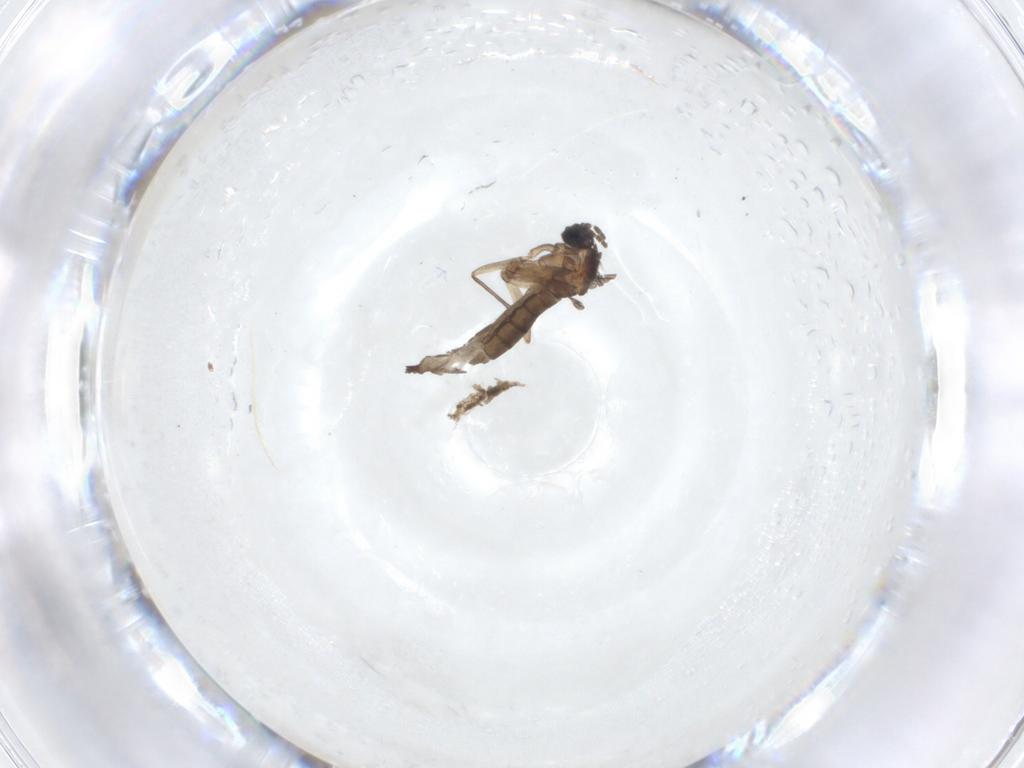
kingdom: Animalia
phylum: Arthropoda
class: Insecta
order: Diptera
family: Sciaridae
